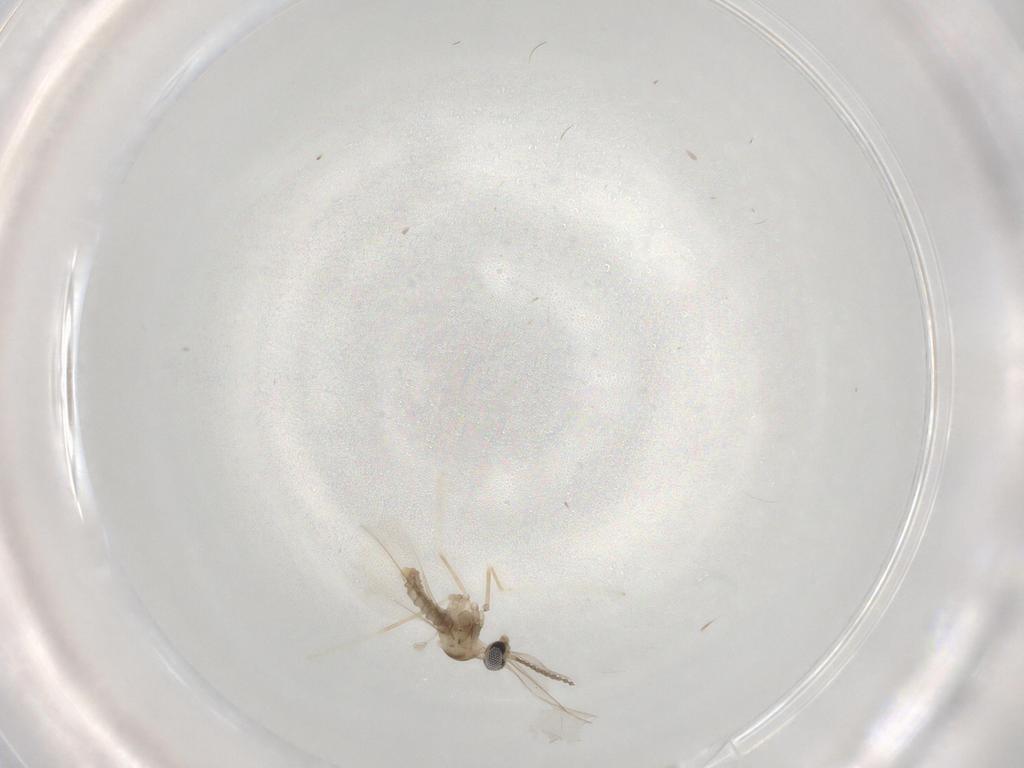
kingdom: Animalia
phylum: Arthropoda
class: Insecta
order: Diptera
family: Cecidomyiidae
